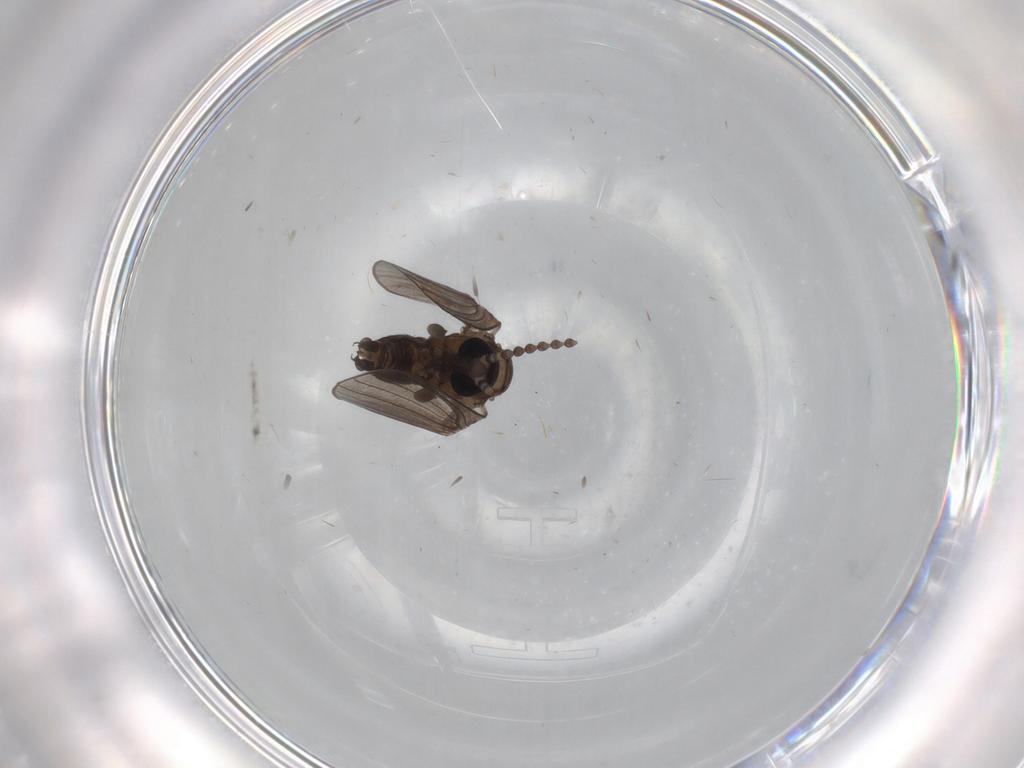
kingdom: Animalia
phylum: Arthropoda
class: Insecta
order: Diptera
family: Psychodidae
